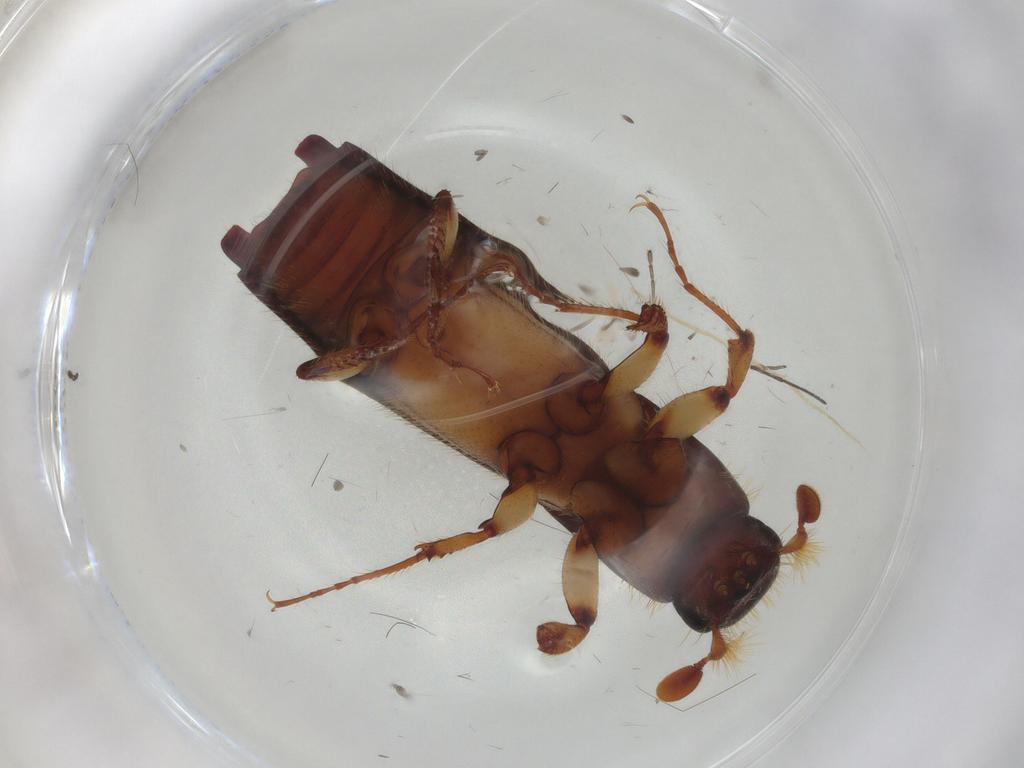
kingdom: Animalia
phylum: Arthropoda
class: Insecta
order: Coleoptera
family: Curculionidae
